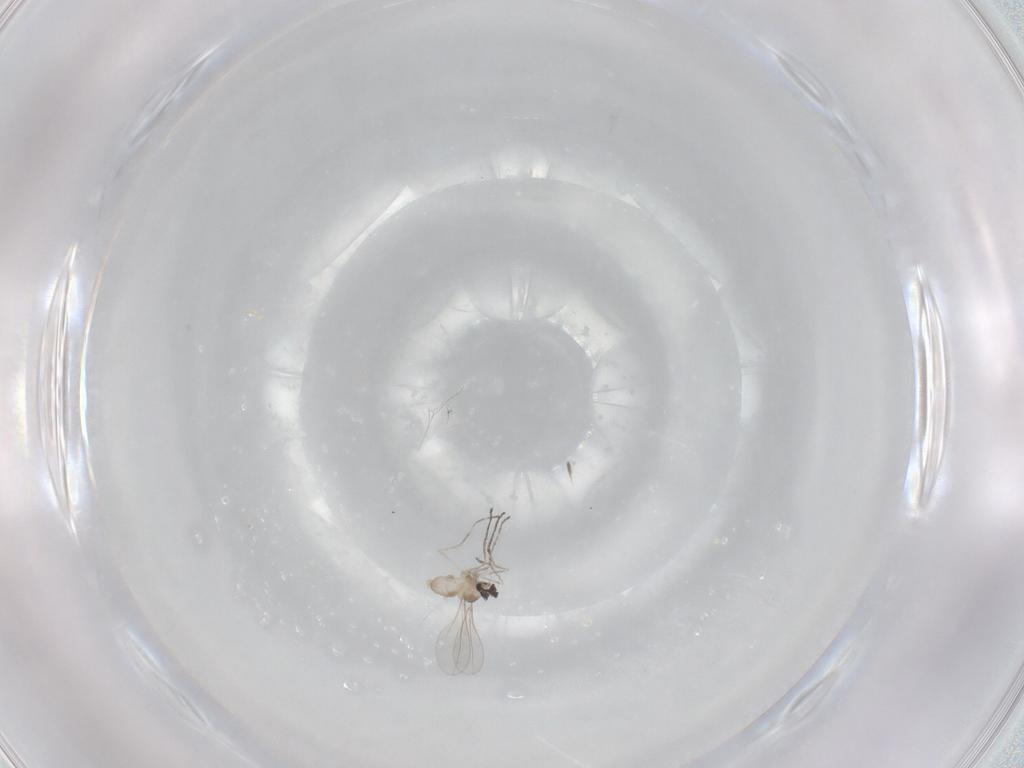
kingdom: Animalia
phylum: Arthropoda
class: Insecta
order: Diptera
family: Cecidomyiidae
